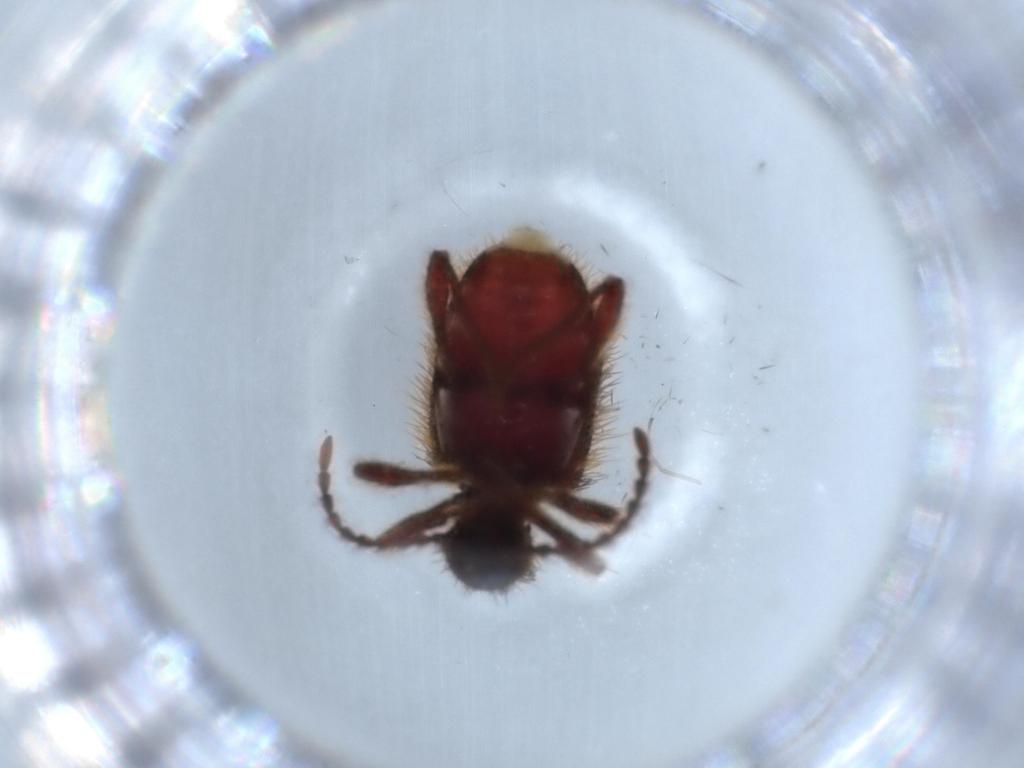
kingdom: Animalia
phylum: Arthropoda
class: Insecta
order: Coleoptera
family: Ptinidae
